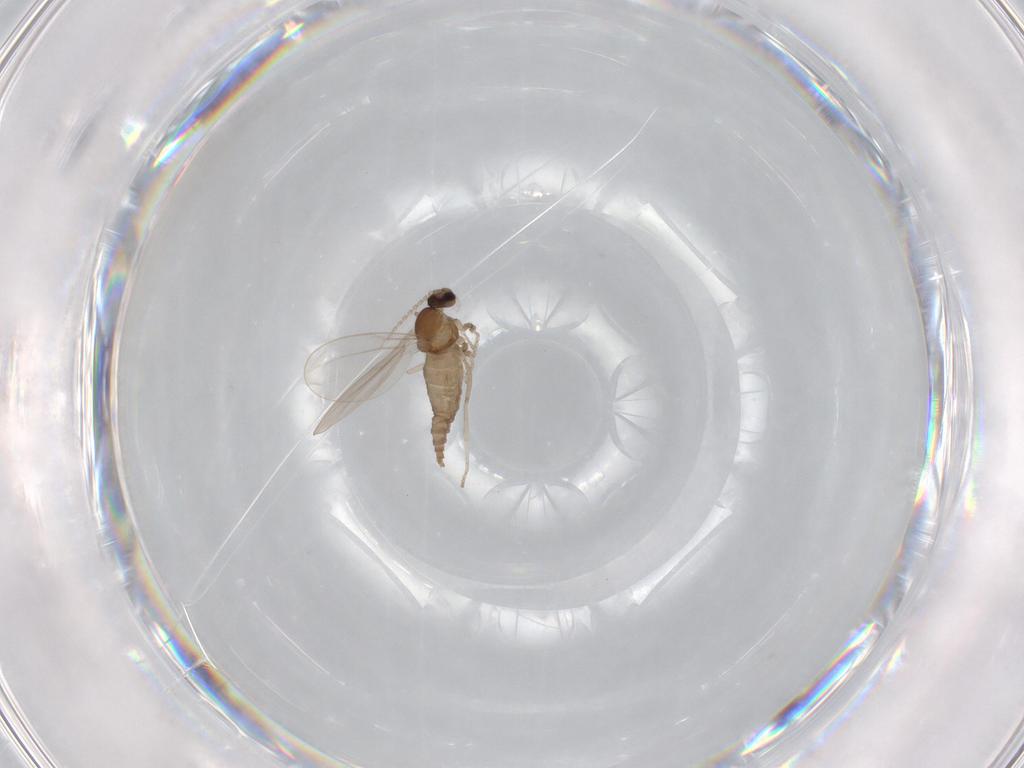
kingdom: Animalia
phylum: Arthropoda
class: Insecta
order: Diptera
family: Cecidomyiidae
